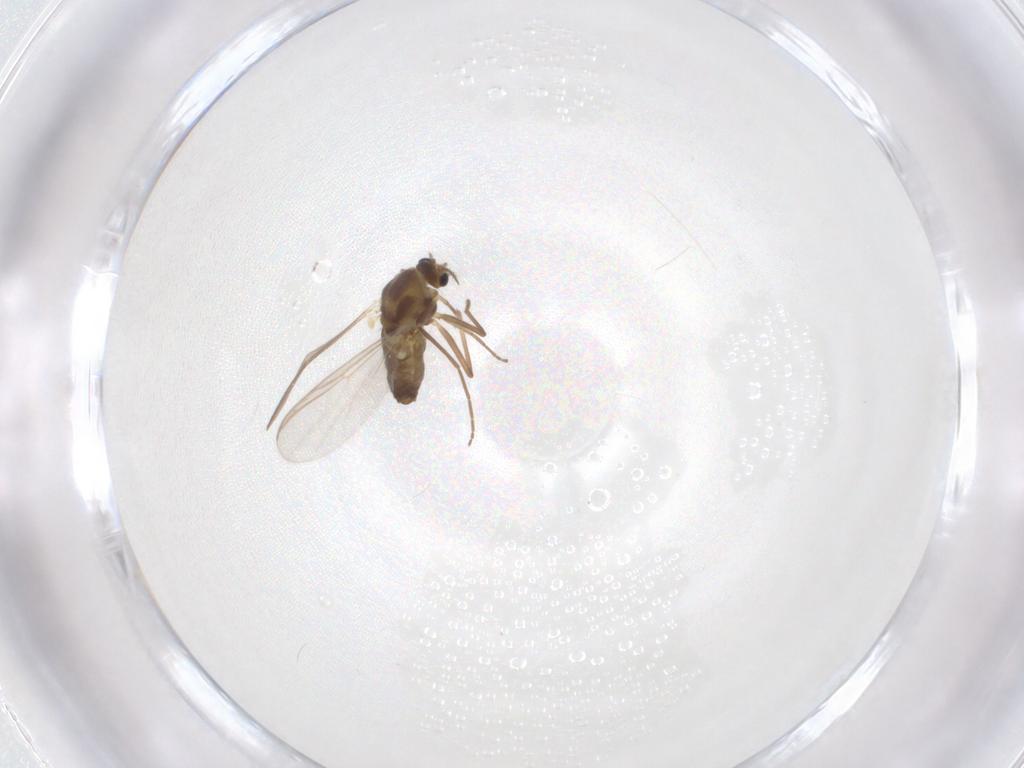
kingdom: Animalia
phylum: Arthropoda
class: Insecta
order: Diptera
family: Chironomidae
